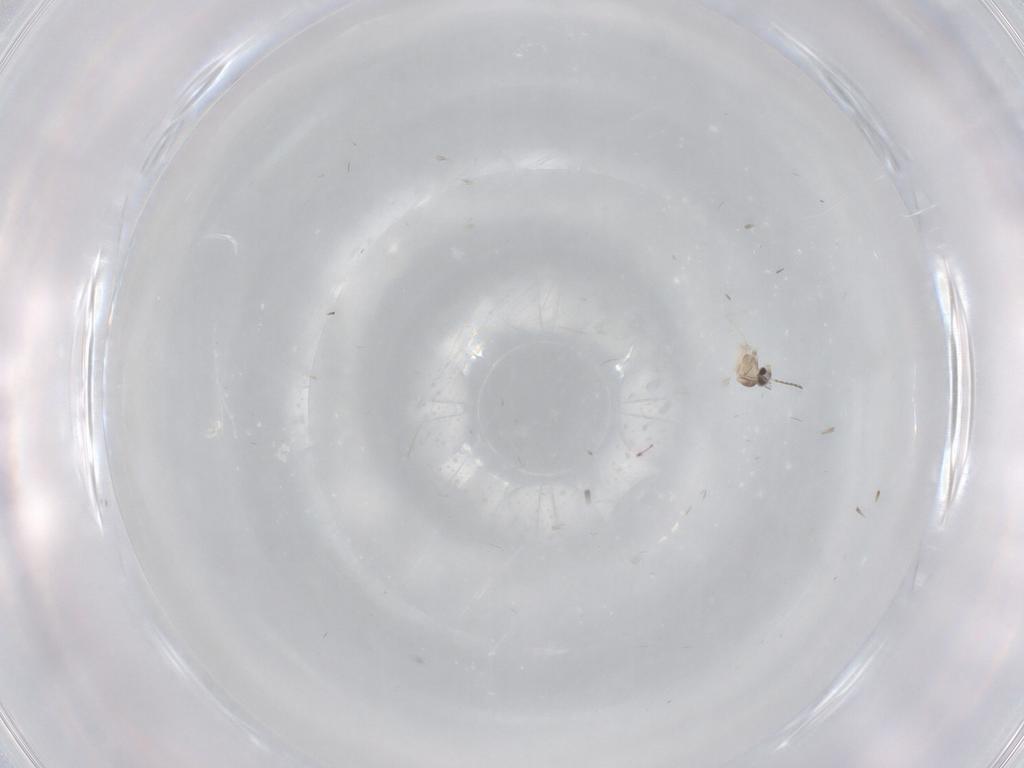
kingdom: Animalia
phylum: Arthropoda
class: Insecta
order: Diptera
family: Cecidomyiidae
